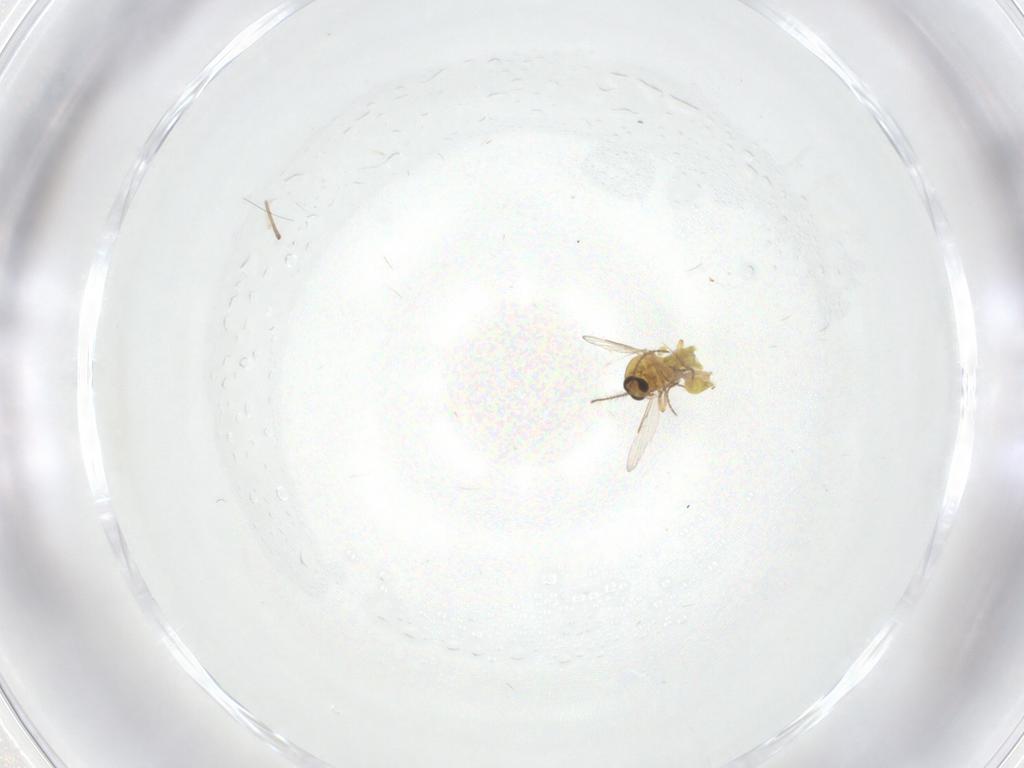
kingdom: Animalia
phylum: Arthropoda
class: Insecta
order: Diptera
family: Ceratopogonidae
